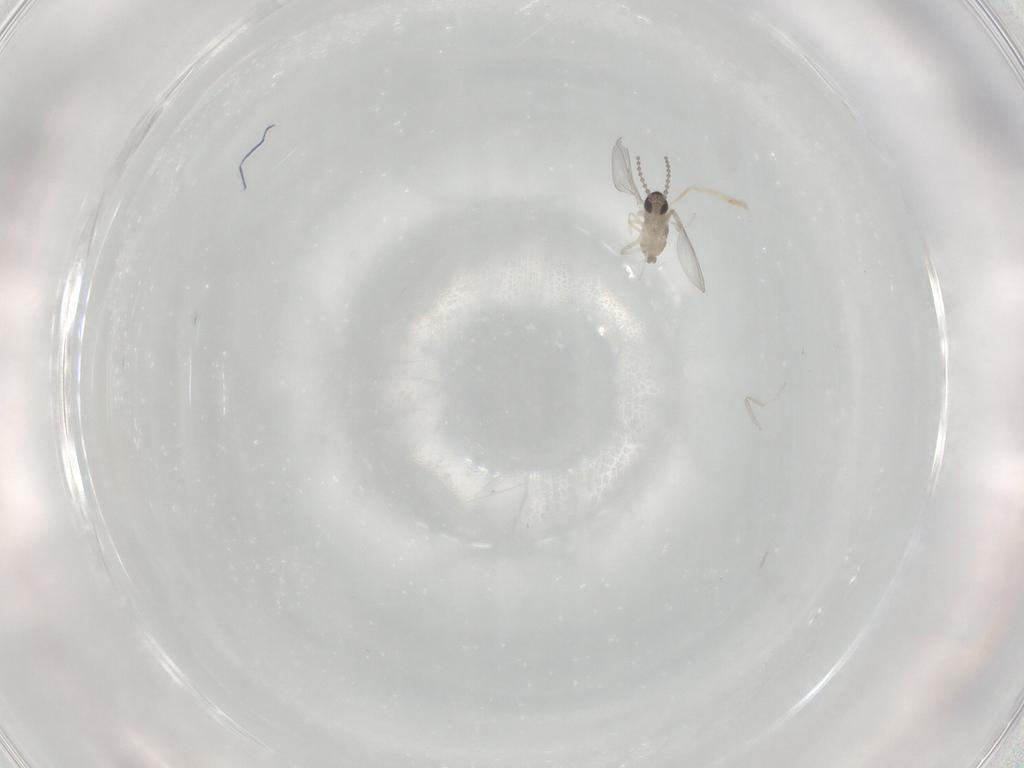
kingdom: Animalia
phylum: Arthropoda
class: Insecta
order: Diptera
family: Cecidomyiidae
